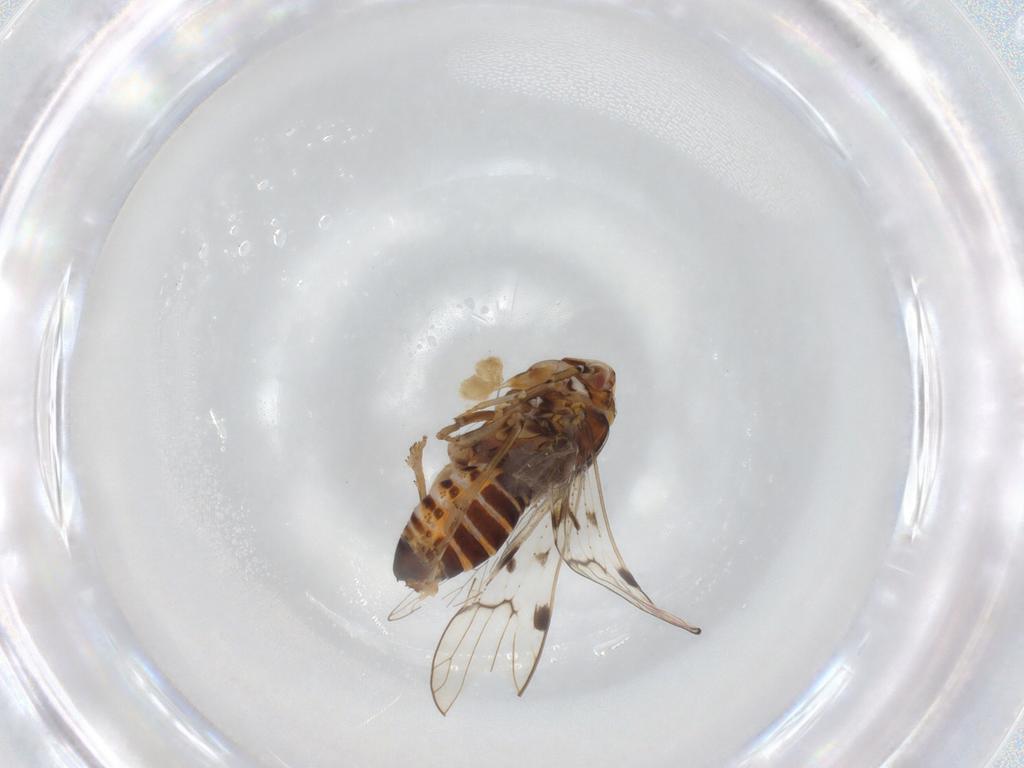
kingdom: Animalia
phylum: Arthropoda
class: Insecta
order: Hemiptera
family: Delphacidae
